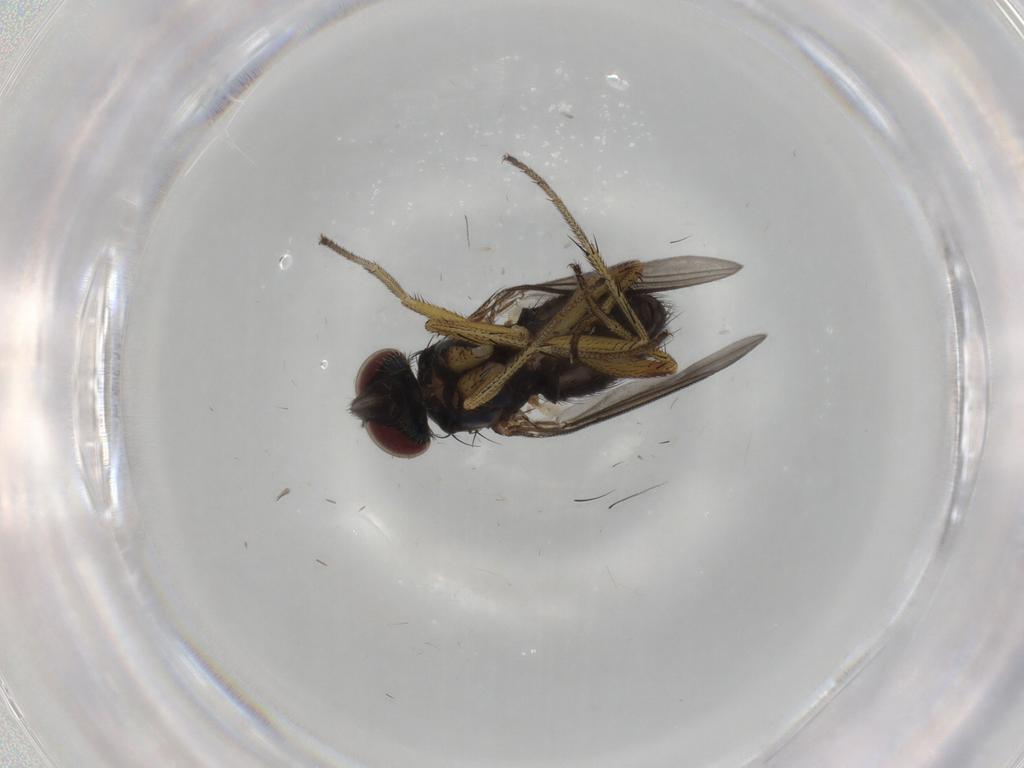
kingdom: Animalia
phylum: Arthropoda
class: Insecta
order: Diptera
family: Dolichopodidae
